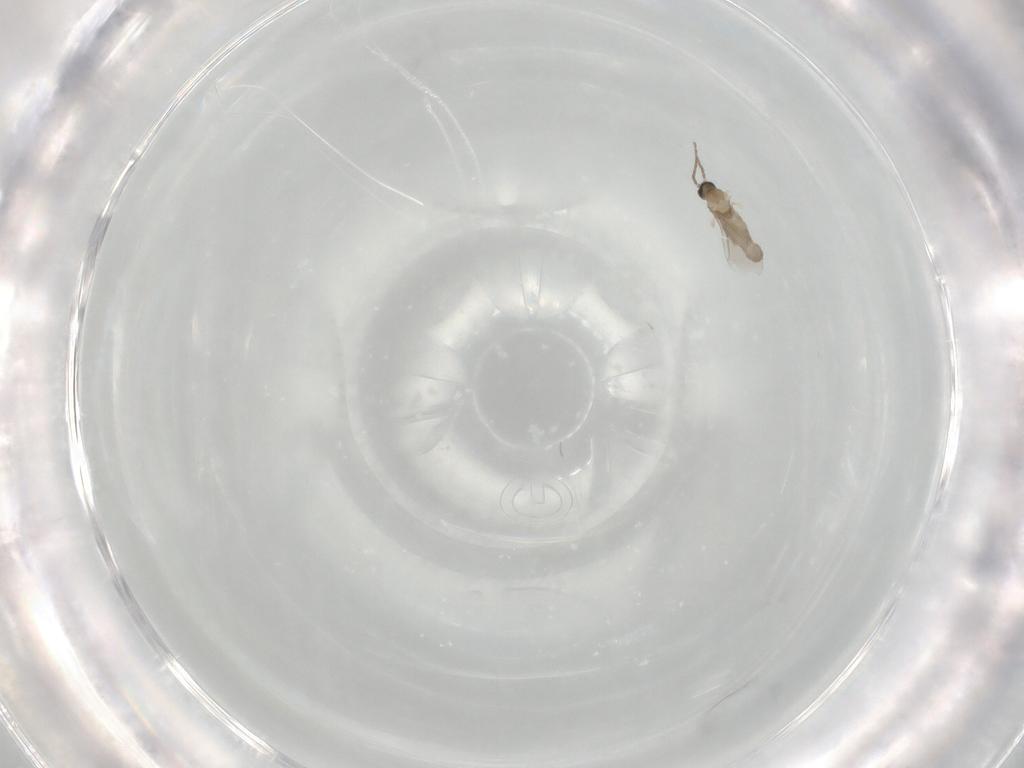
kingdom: Animalia
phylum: Arthropoda
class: Insecta
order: Diptera
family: Cecidomyiidae
